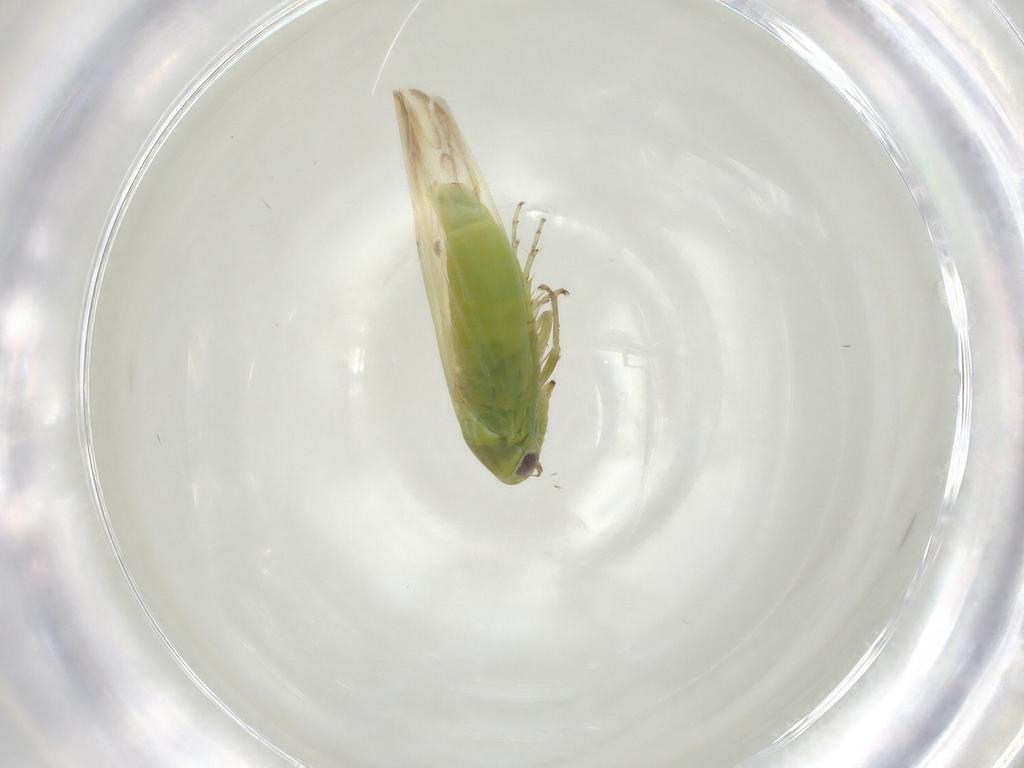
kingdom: Animalia
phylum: Arthropoda
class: Insecta
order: Hemiptera
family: Cicadellidae
